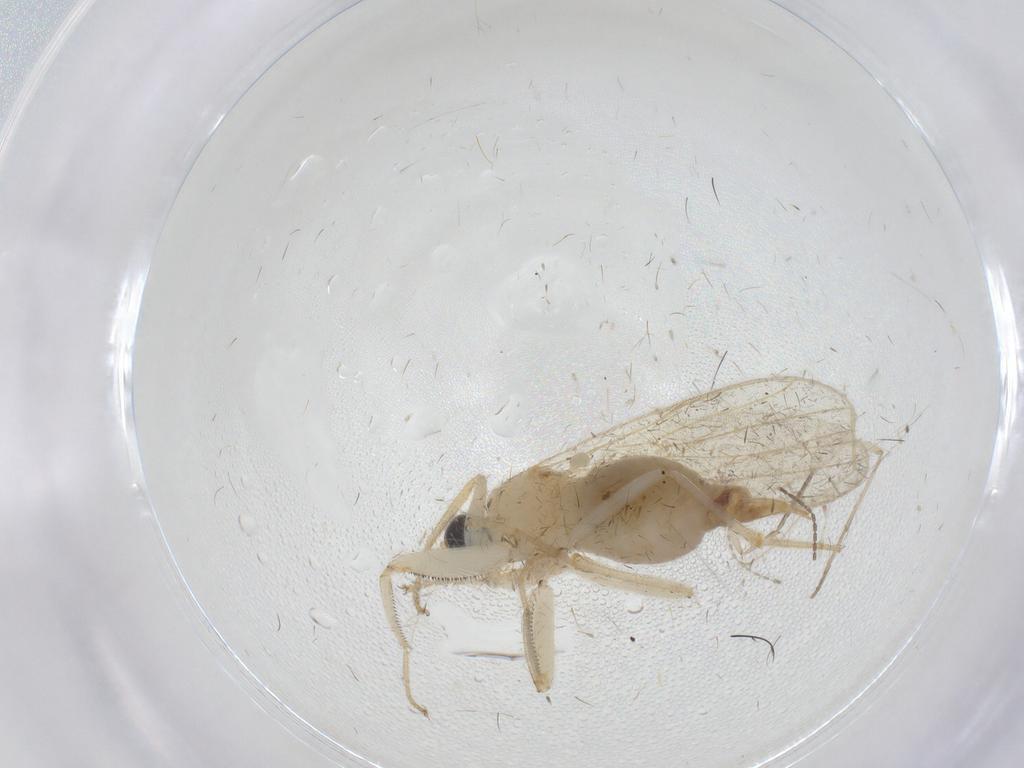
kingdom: Animalia
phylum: Arthropoda
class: Insecta
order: Diptera
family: Hybotidae
